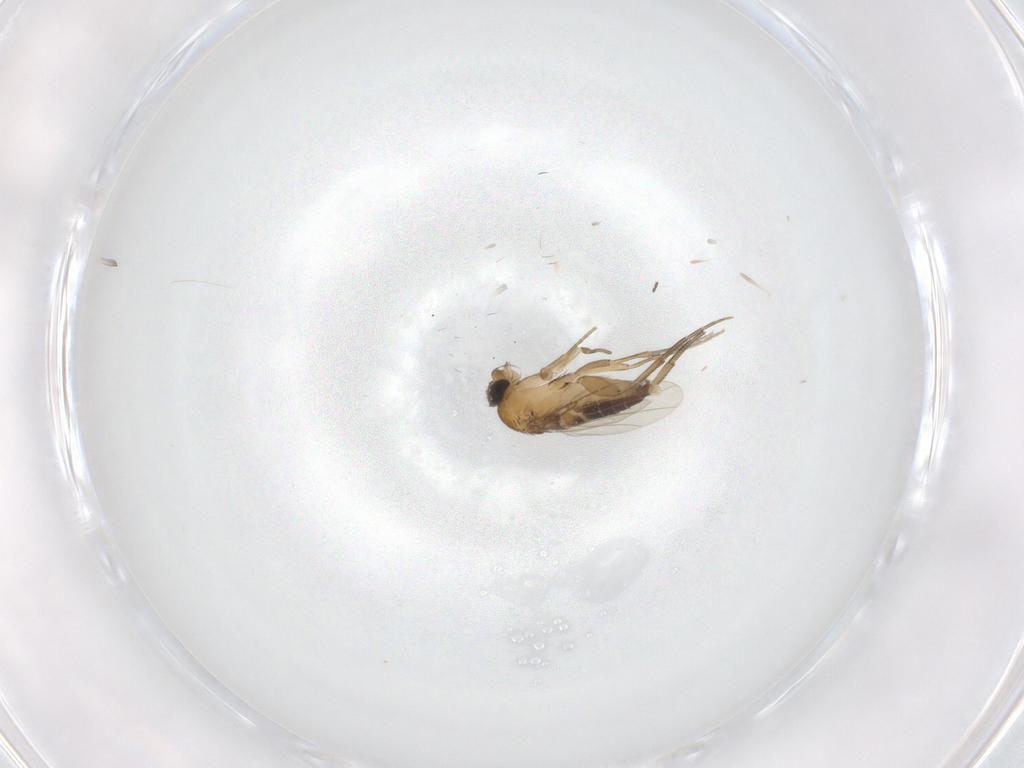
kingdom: Animalia
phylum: Arthropoda
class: Insecta
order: Diptera
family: Phoridae
